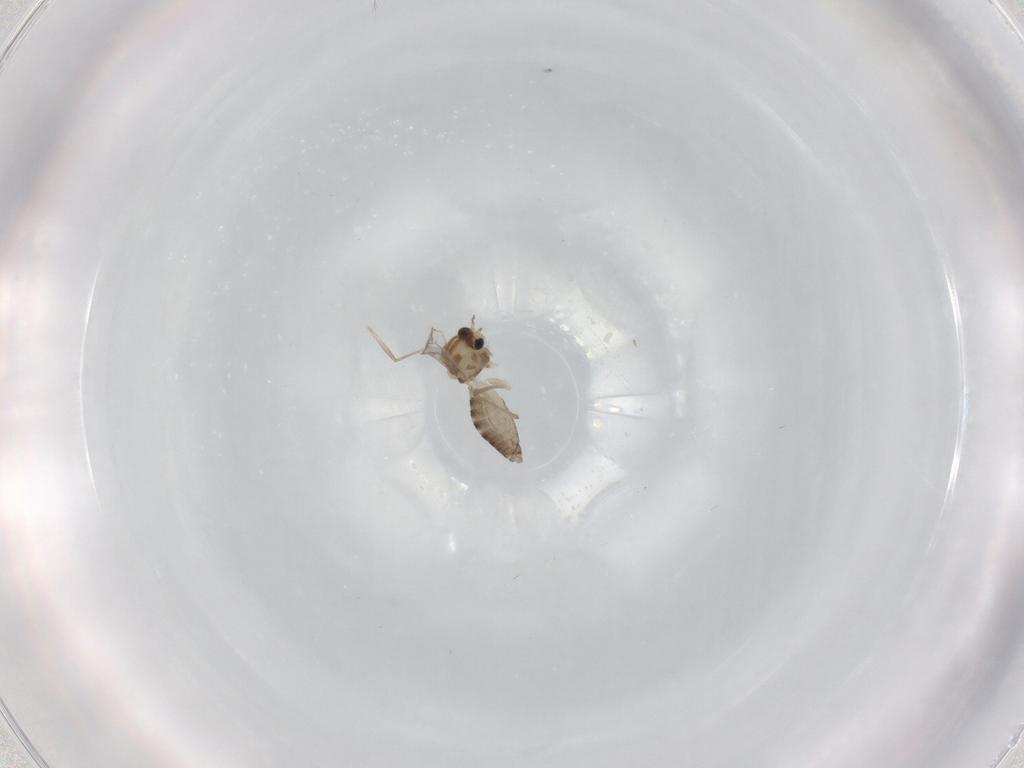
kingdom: Animalia
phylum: Arthropoda
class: Insecta
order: Diptera
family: Chironomidae
